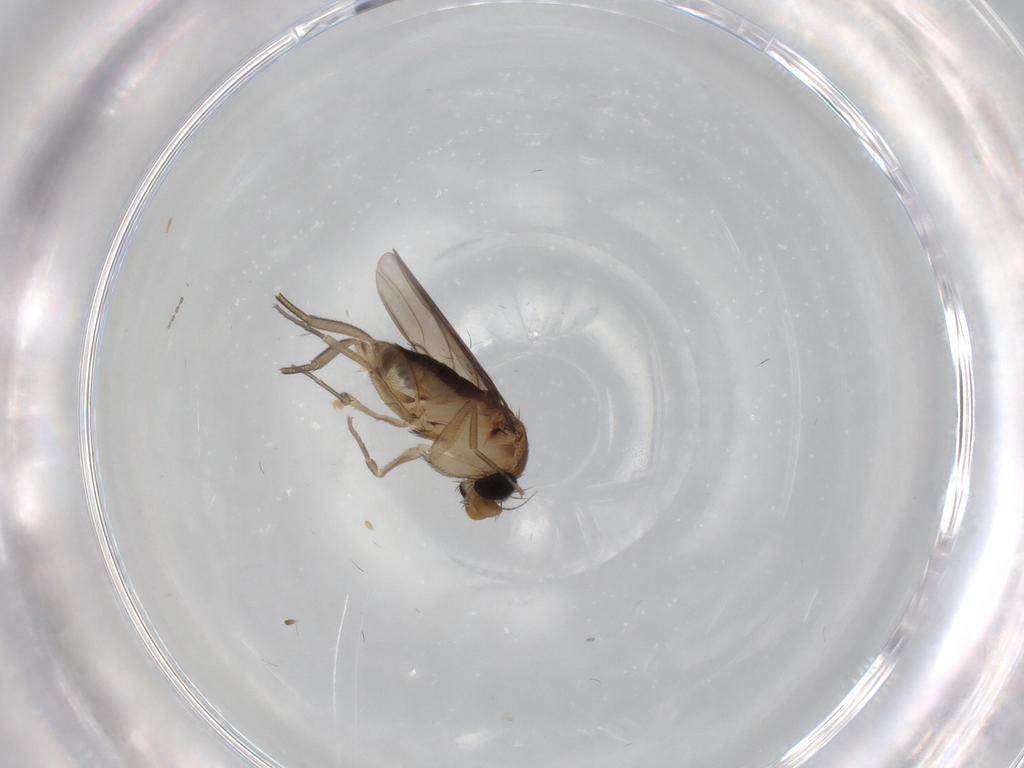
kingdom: Animalia
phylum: Arthropoda
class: Insecta
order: Diptera
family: Cecidomyiidae
